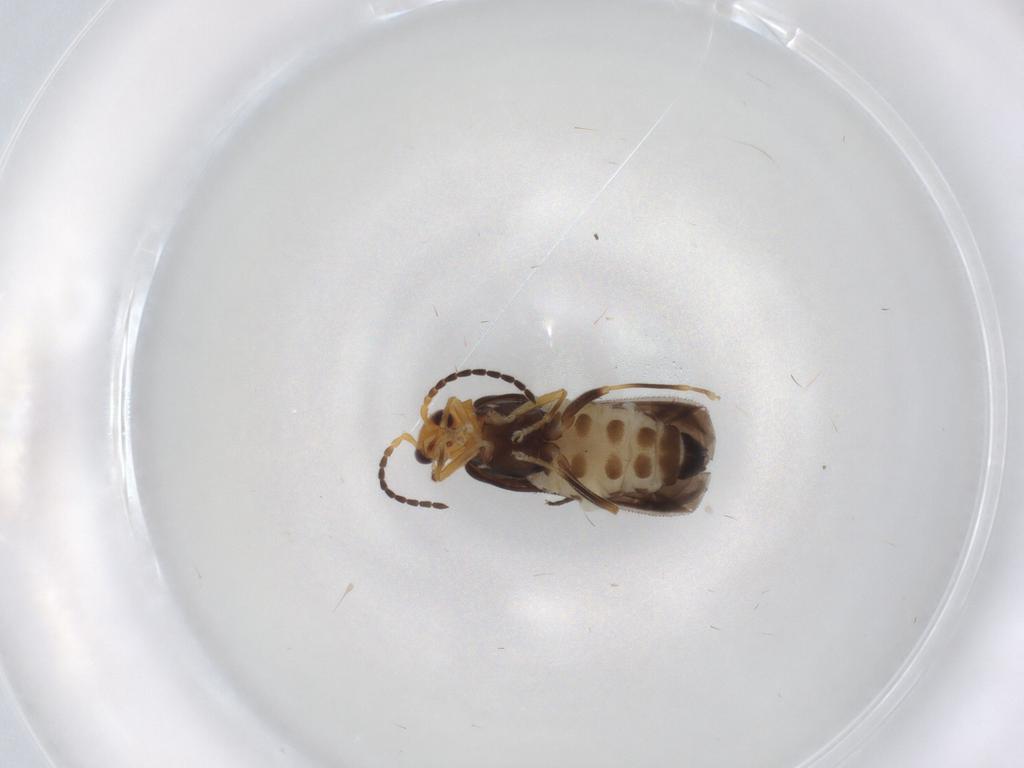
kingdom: Animalia
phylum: Arthropoda
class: Insecta
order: Coleoptera
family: Cantharidae
